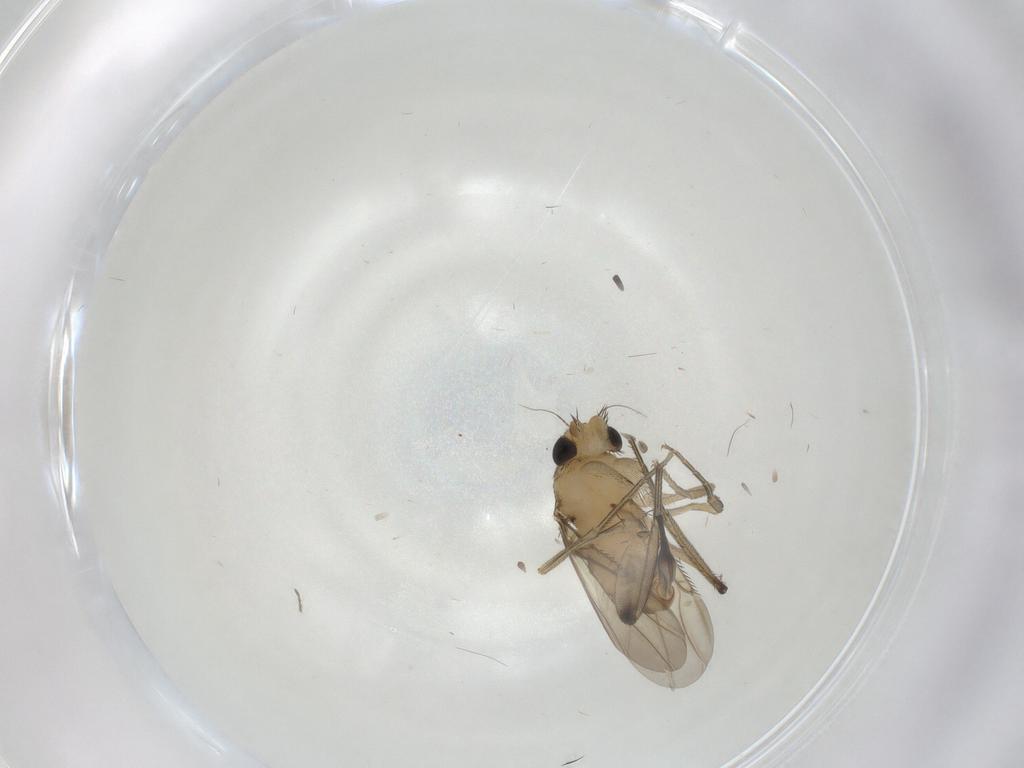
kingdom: Animalia
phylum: Arthropoda
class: Insecta
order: Diptera
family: Phoridae
